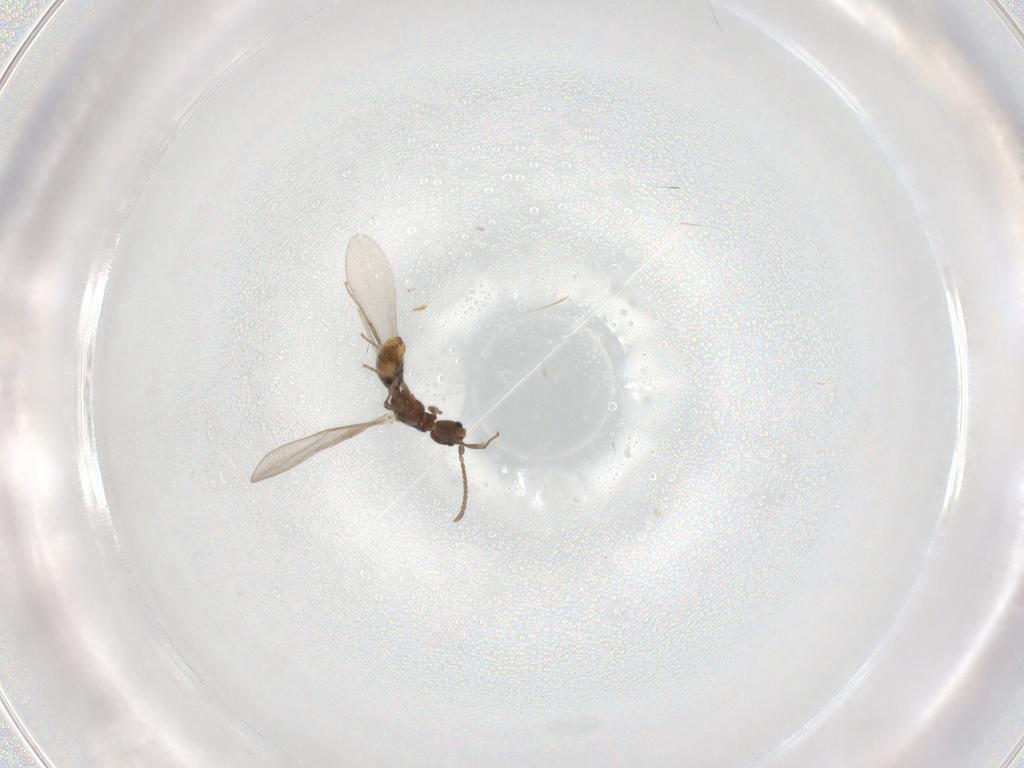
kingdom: Animalia
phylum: Arthropoda
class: Insecta
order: Hymenoptera
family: Formicidae
